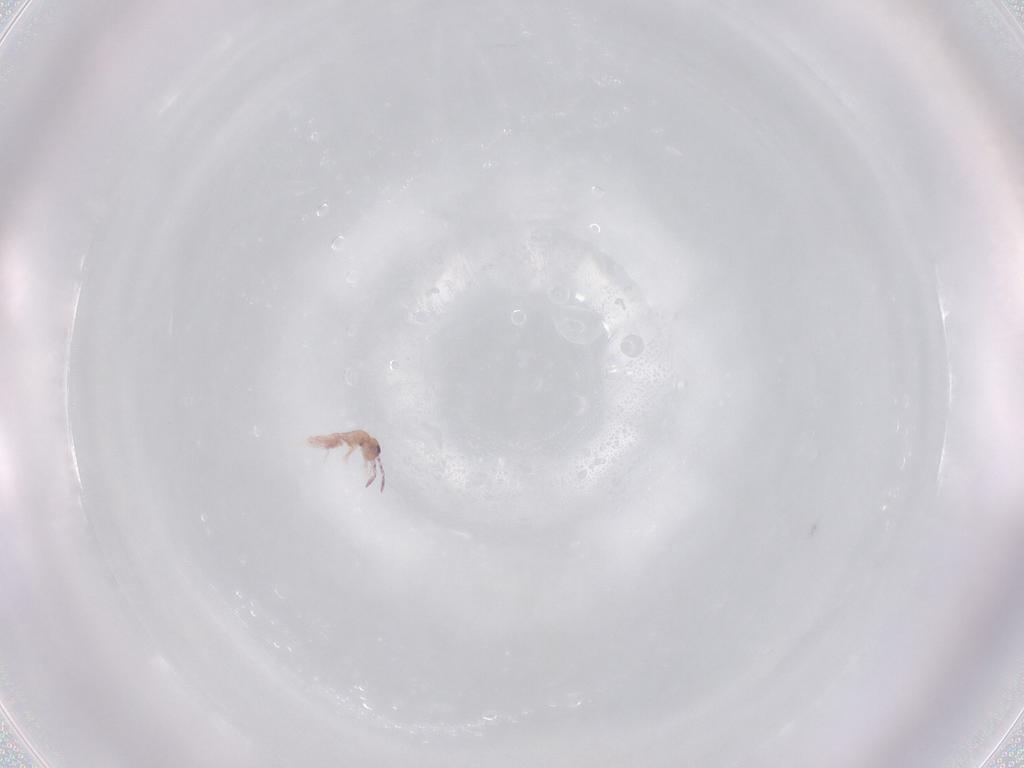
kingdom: Animalia
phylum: Arthropoda
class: Collembola
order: Entomobryomorpha
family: Entomobryidae
